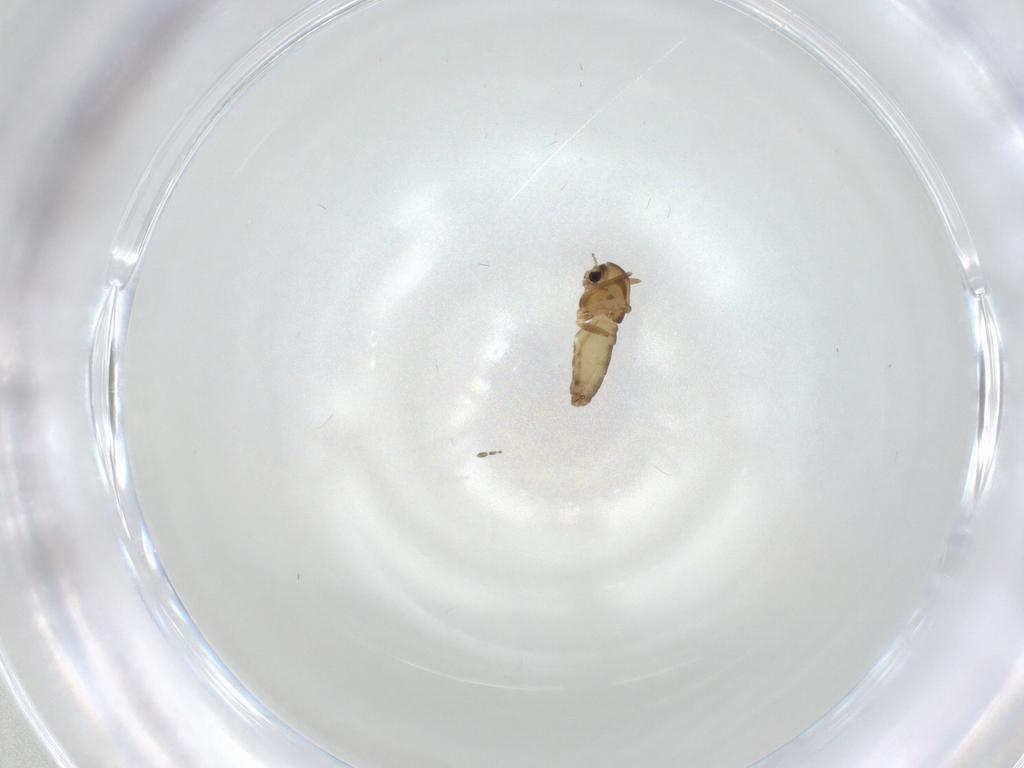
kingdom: Animalia
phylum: Arthropoda
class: Insecta
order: Diptera
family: Chironomidae
